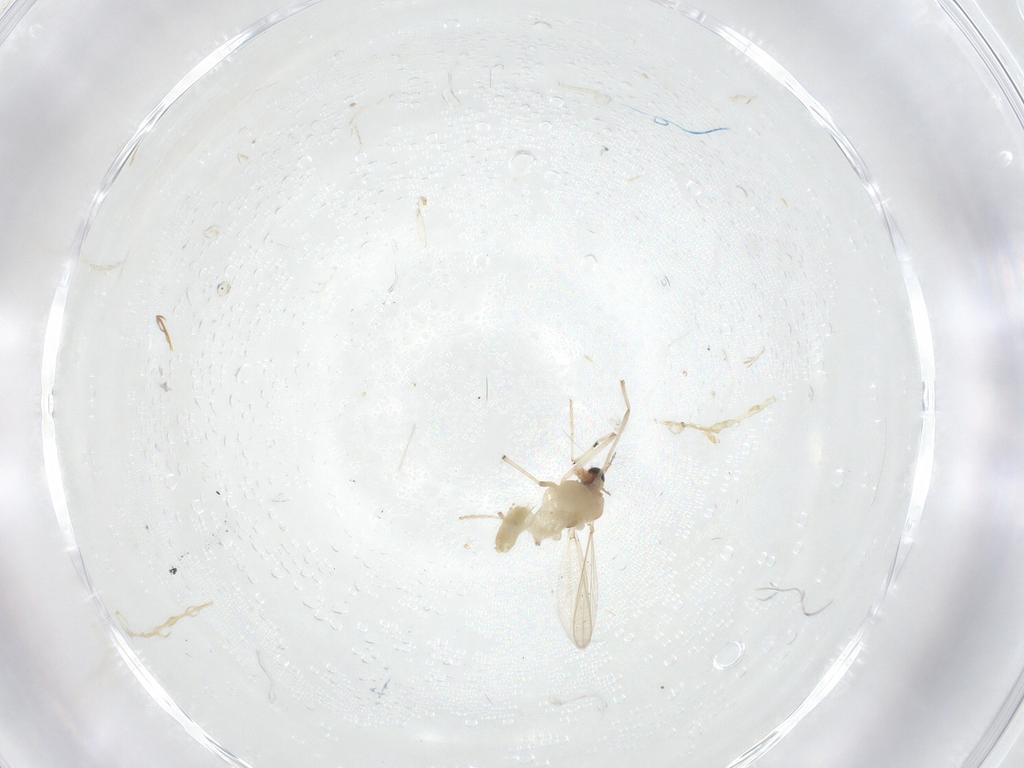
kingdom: Animalia
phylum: Arthropoda
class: Insecta
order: Diptera
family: Chironomidae
